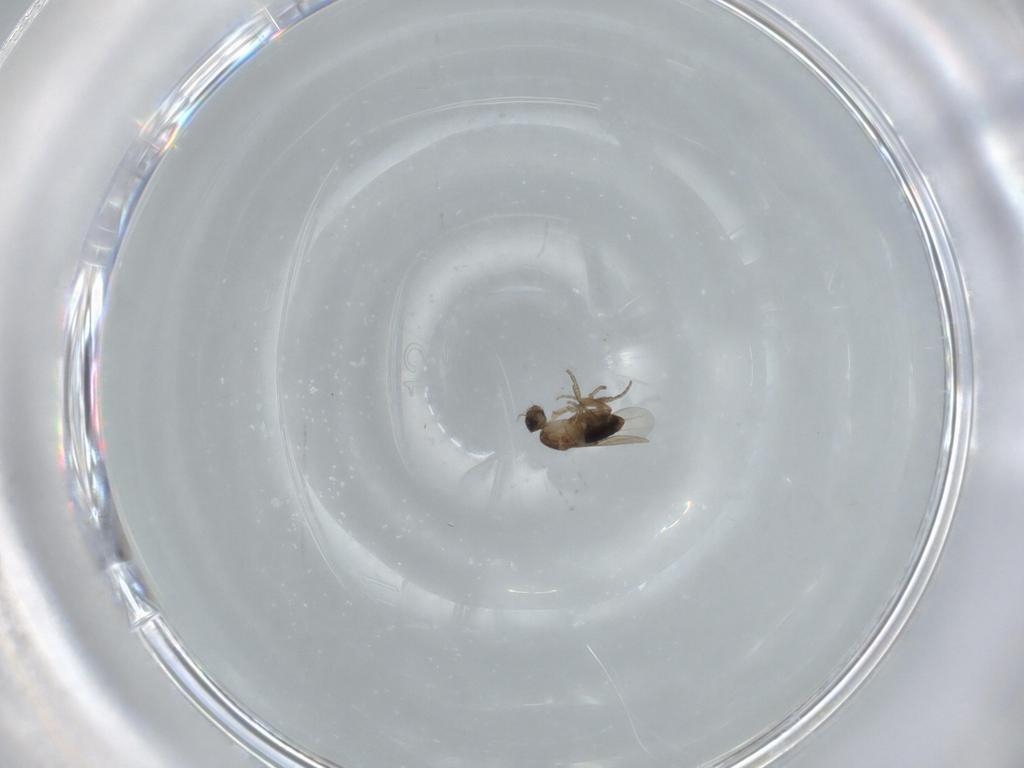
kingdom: Animalia
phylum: Arthropoda
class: Insecta
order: Diptera
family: Phoridae
